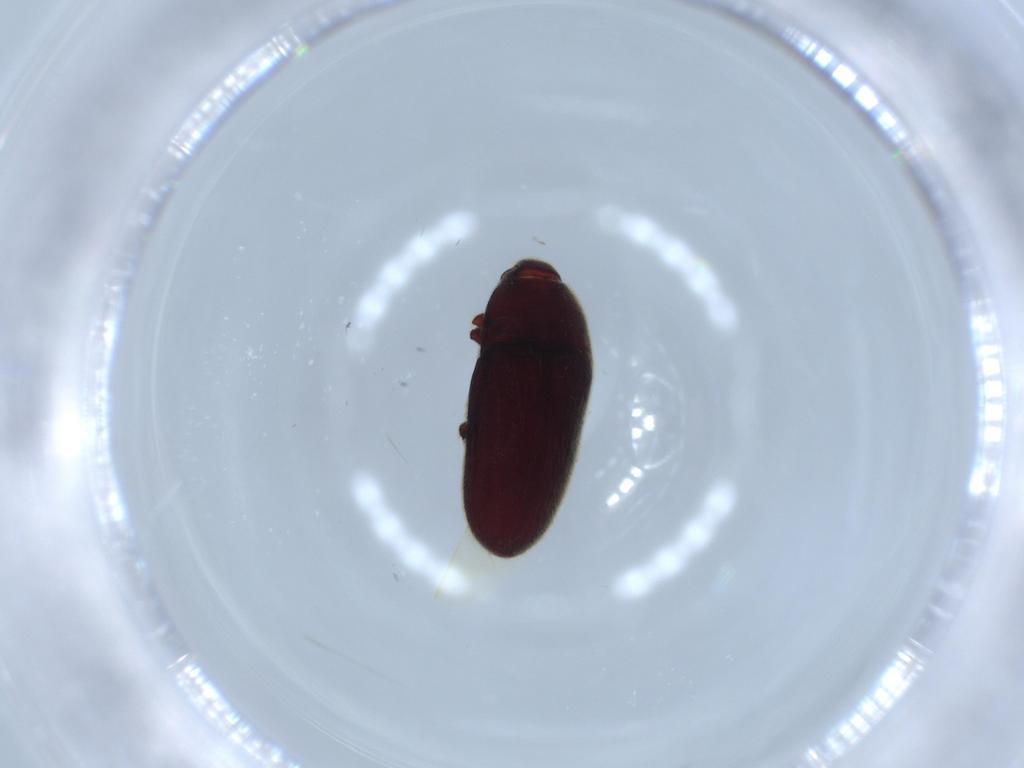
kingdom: Animalia
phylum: Arthropoda
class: Insecta
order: Coleoptera
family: Throscidae
